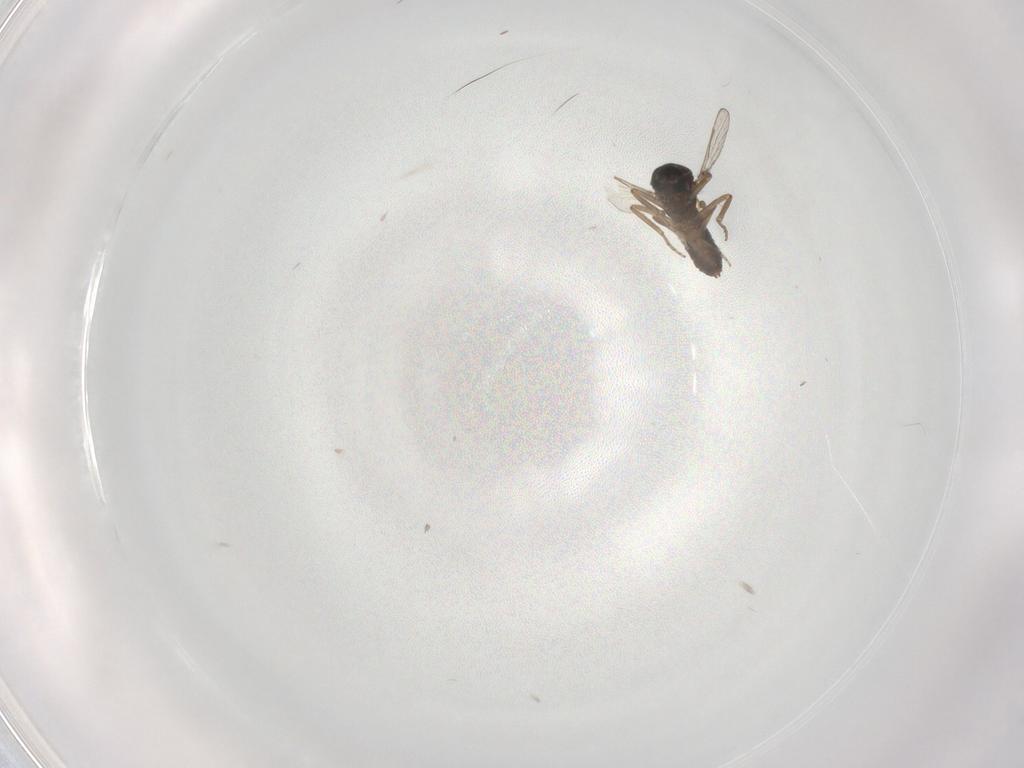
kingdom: Animalia
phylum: Arthropoda
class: Insecta
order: Diptera
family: Ceratopogonidae
